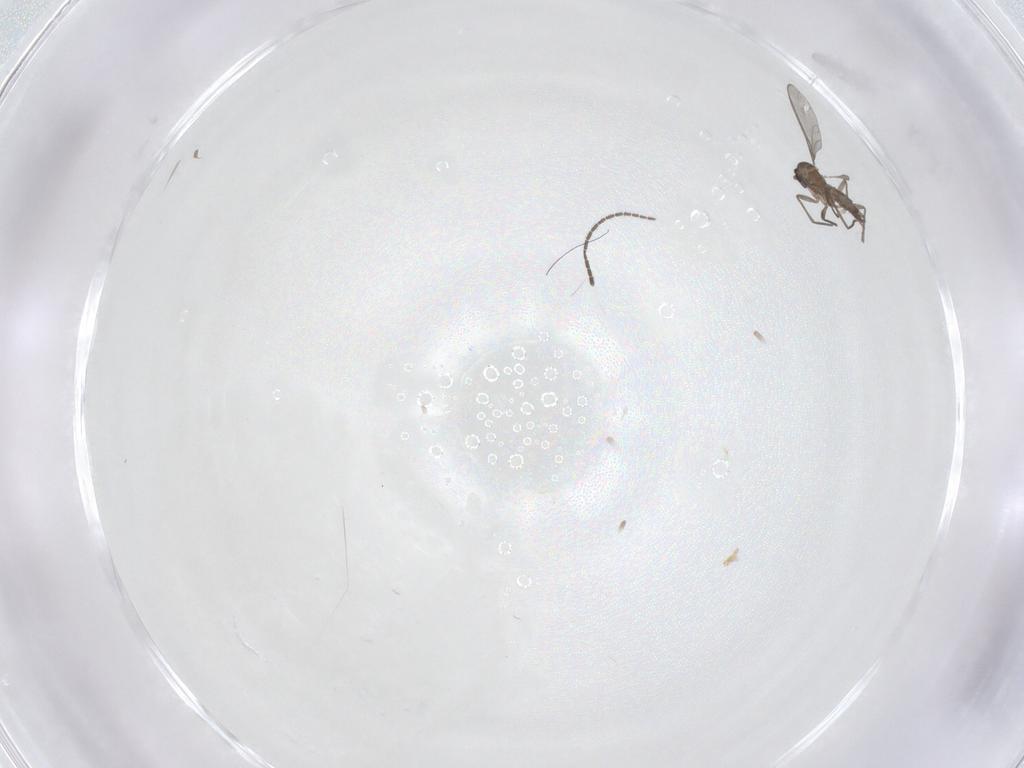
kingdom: Animalia
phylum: Arthropoda
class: Insecta
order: Diptera
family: Sciaridae
